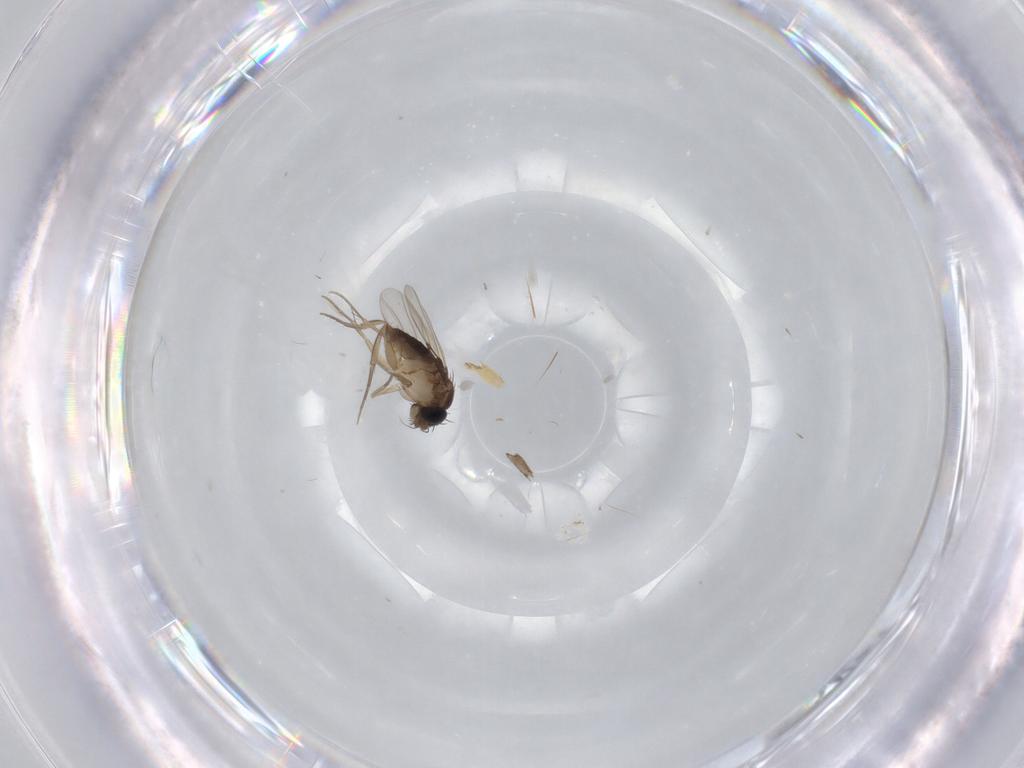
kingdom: Animalia
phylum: Arthropoda
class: Insecta
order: Diptera
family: Phoridae
